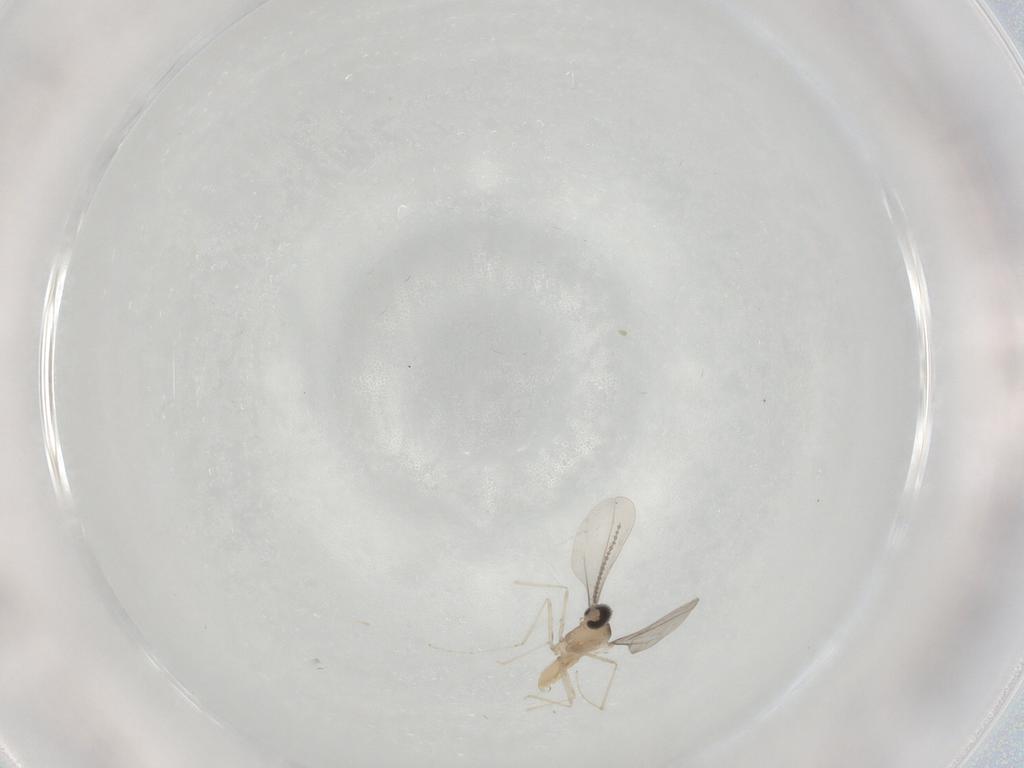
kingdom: Animalia
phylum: Arthropoda
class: Insecta
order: Diptera
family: Cecidomyiidae
